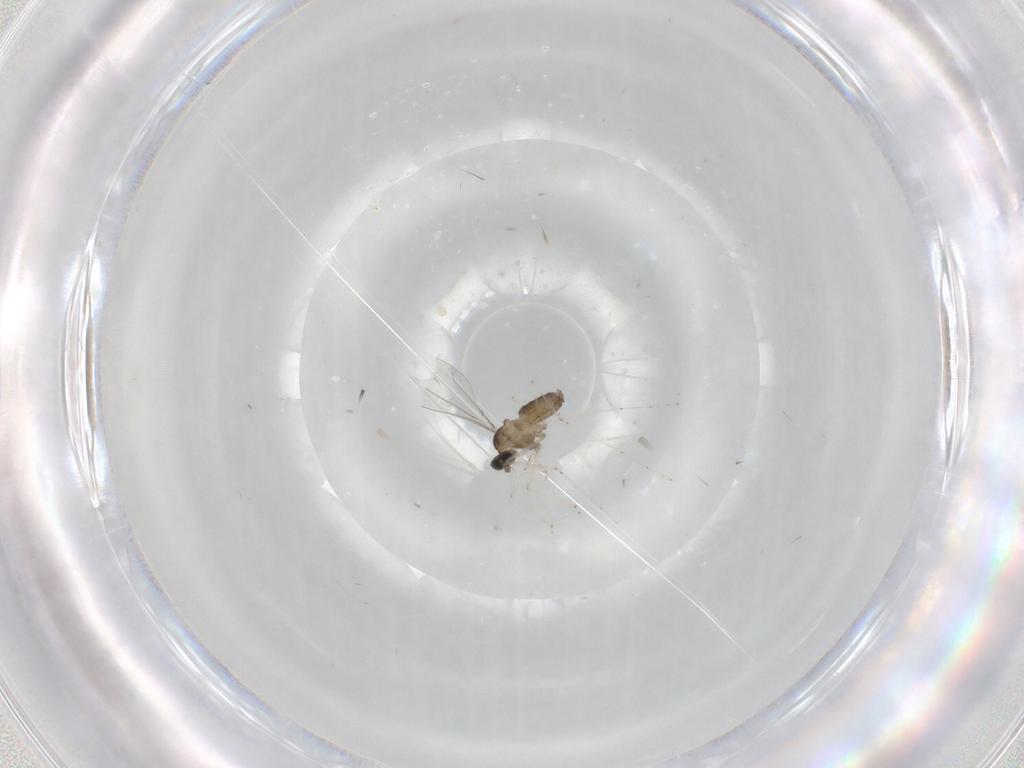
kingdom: Animalia
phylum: Arthropoda
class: Insecta
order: Diptera
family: Cecidomyiidae
